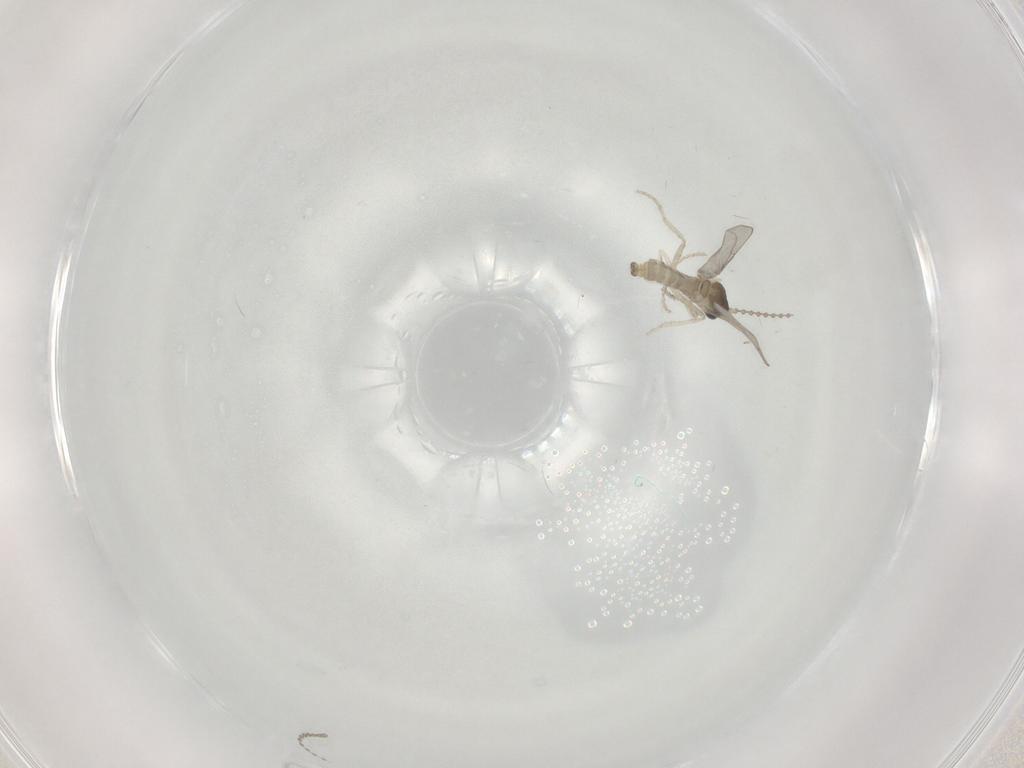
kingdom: Animalia
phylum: Arthropoda
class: Insecta
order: Diptera
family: Cecidomyiidae
